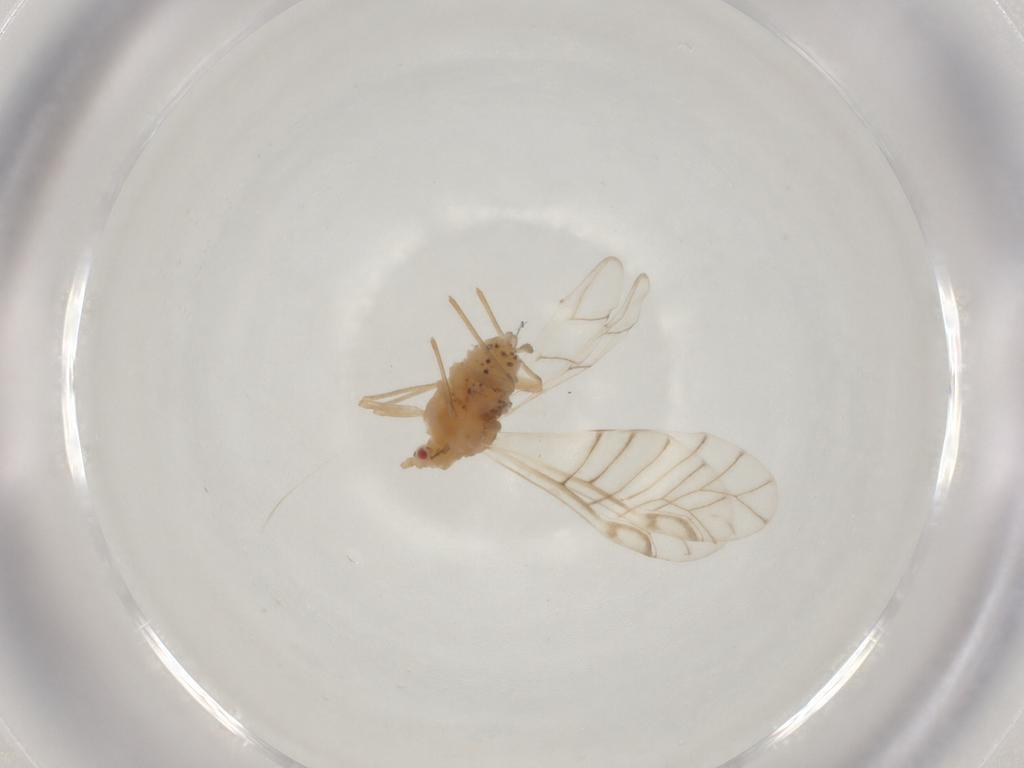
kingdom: Animalia
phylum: Arthropoda
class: Insecta
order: Hemiptera
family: Aphididae
